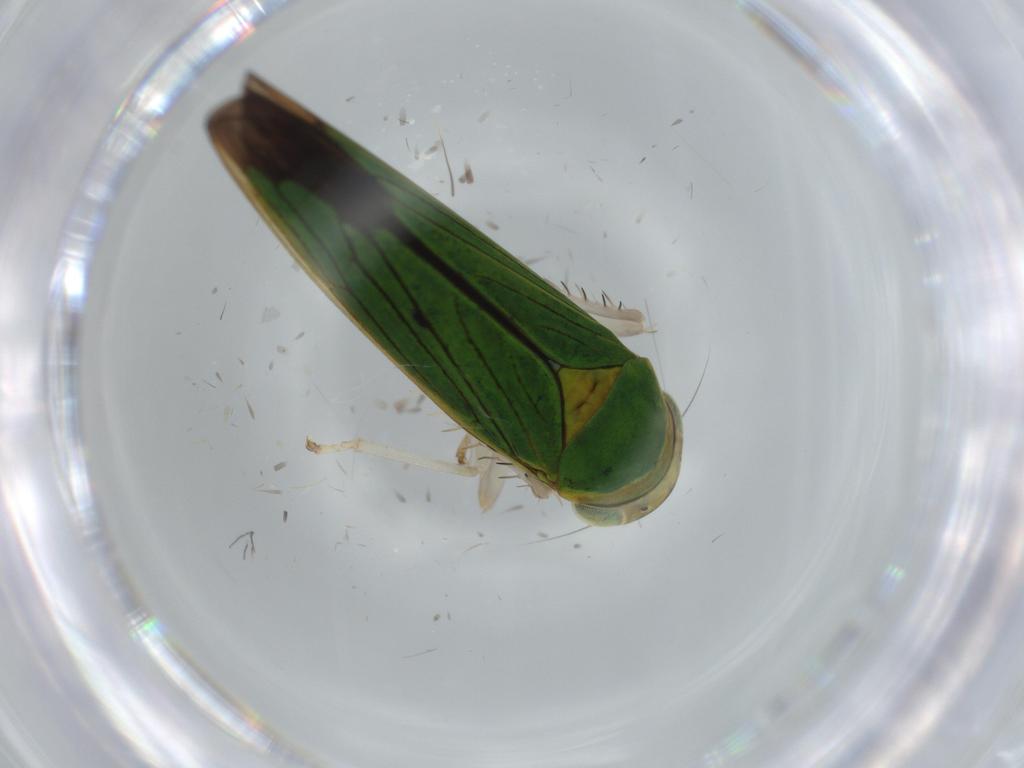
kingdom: Animalia
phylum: Arthropoda
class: Insecta
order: Hemiptera
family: Cicadellidae
